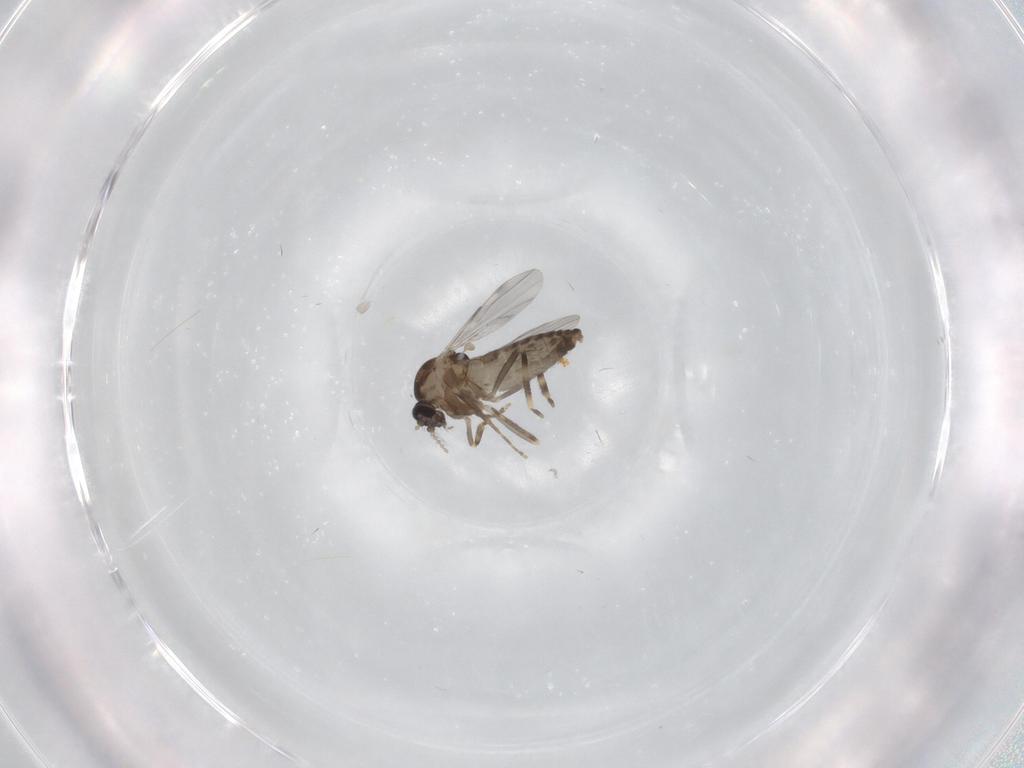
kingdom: Animalia
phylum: Arthropoda
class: Insecta
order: Diptera
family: Ceratopogonidae
